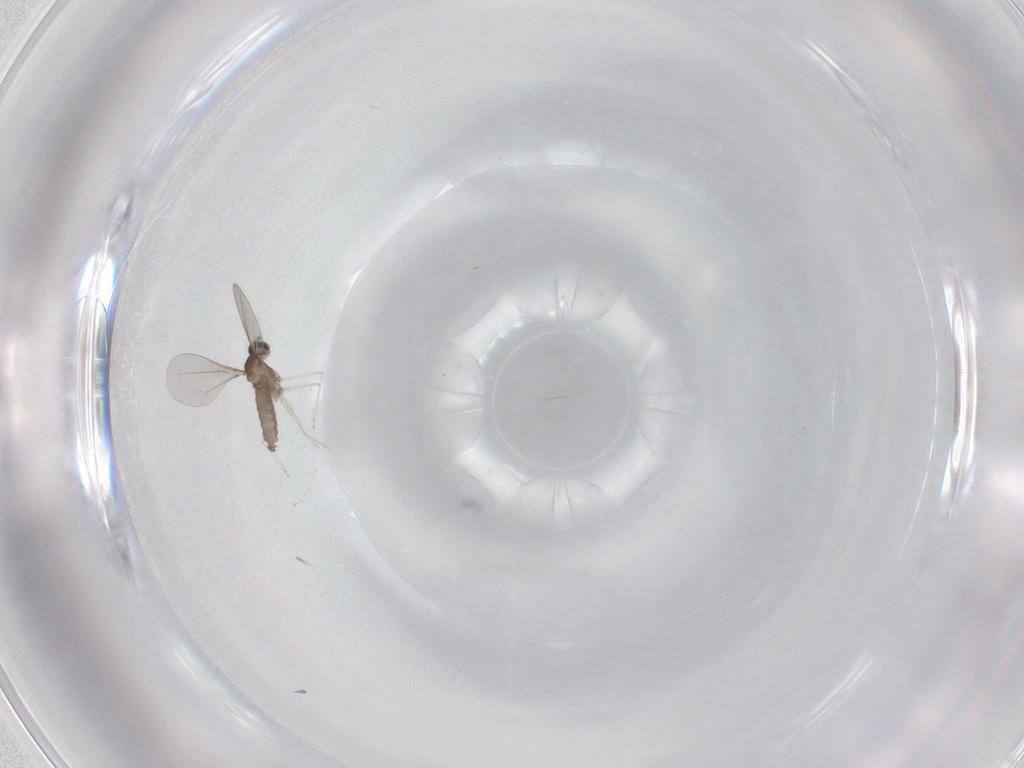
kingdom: Animalia
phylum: Arthropoda
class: Insecta
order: Diptera
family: Cecidomyiidae
